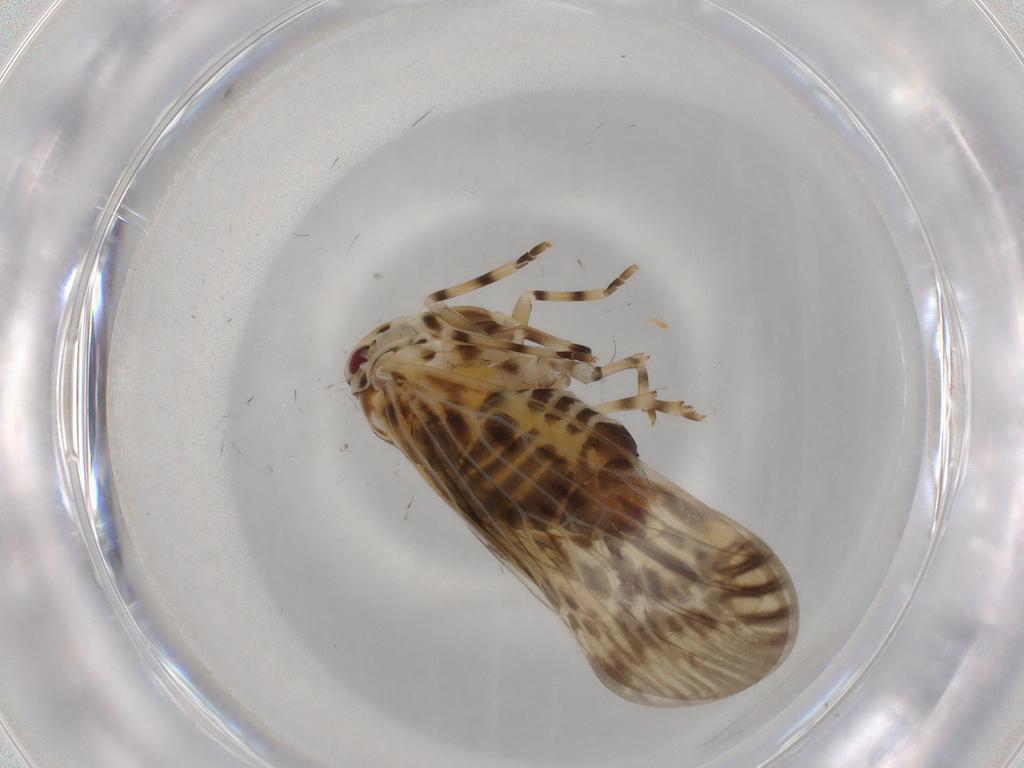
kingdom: Animalia
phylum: Arthropoda
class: Insecta
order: Hemiptera
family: Derbidae
